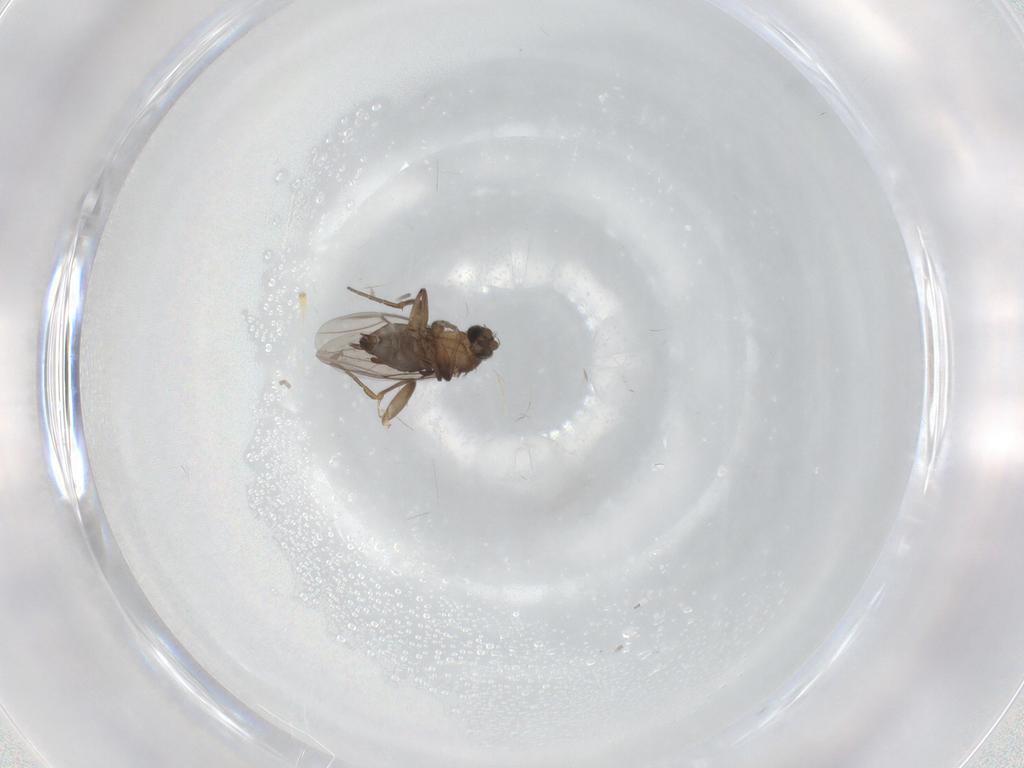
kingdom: Animalia
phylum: Arthropoda
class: Insecta
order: Diptera
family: Phoridae
